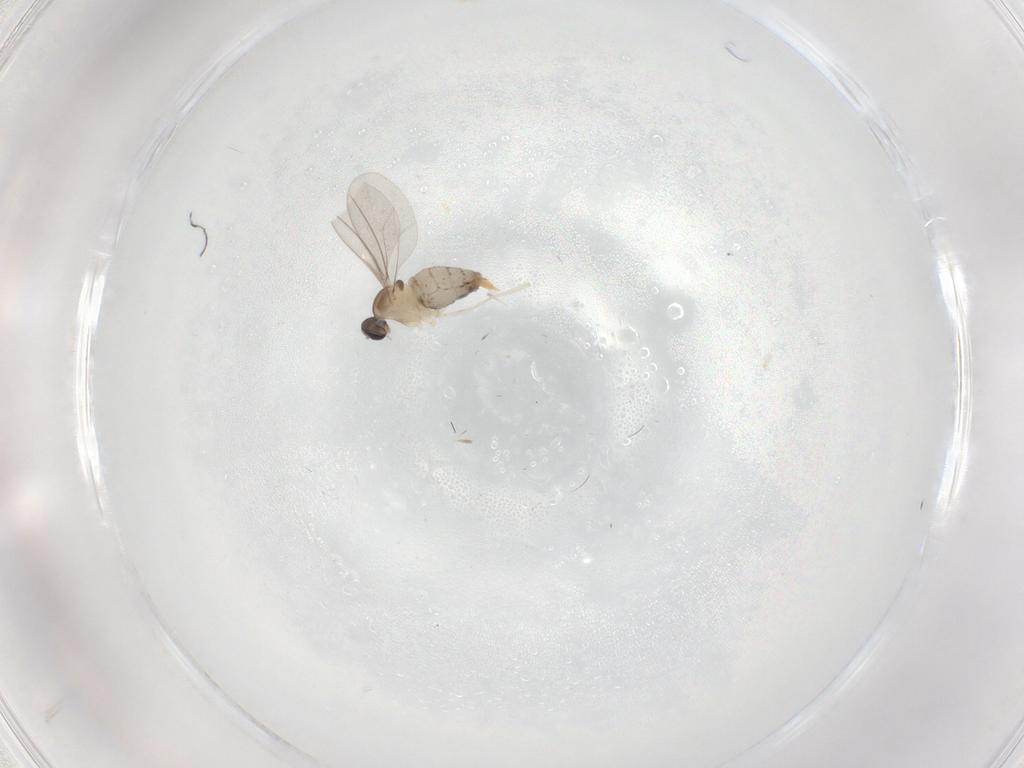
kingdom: Animalia
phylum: Arthropoda
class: Insecta
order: Diptera
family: Cecidomyiidae
